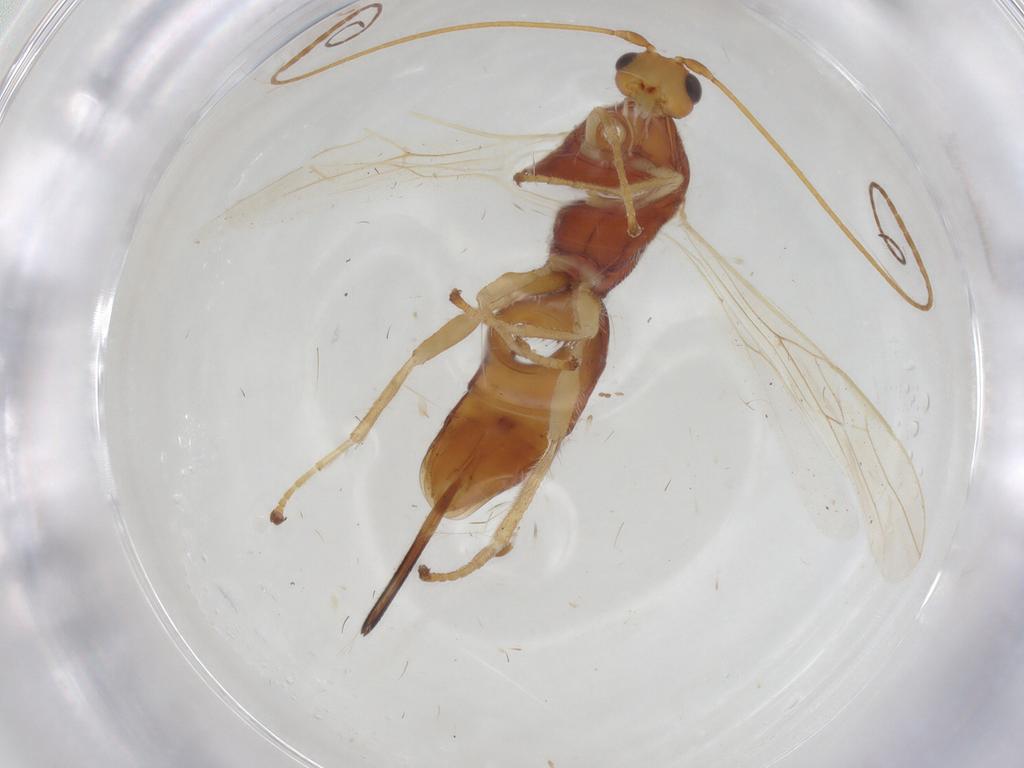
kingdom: Animalia
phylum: Arthropoda
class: Insecta
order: Hymenoptera
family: Braconidae
